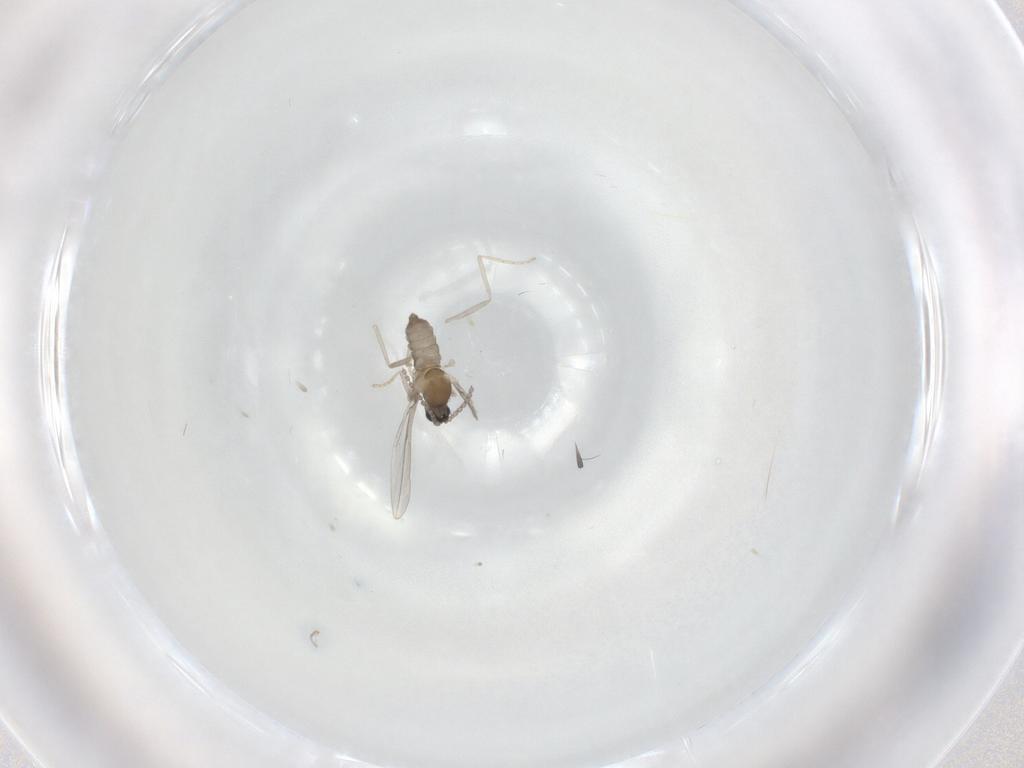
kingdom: Animalia
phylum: Arthropoda
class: Insecta
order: Diptera
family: Cecidomyiidae
